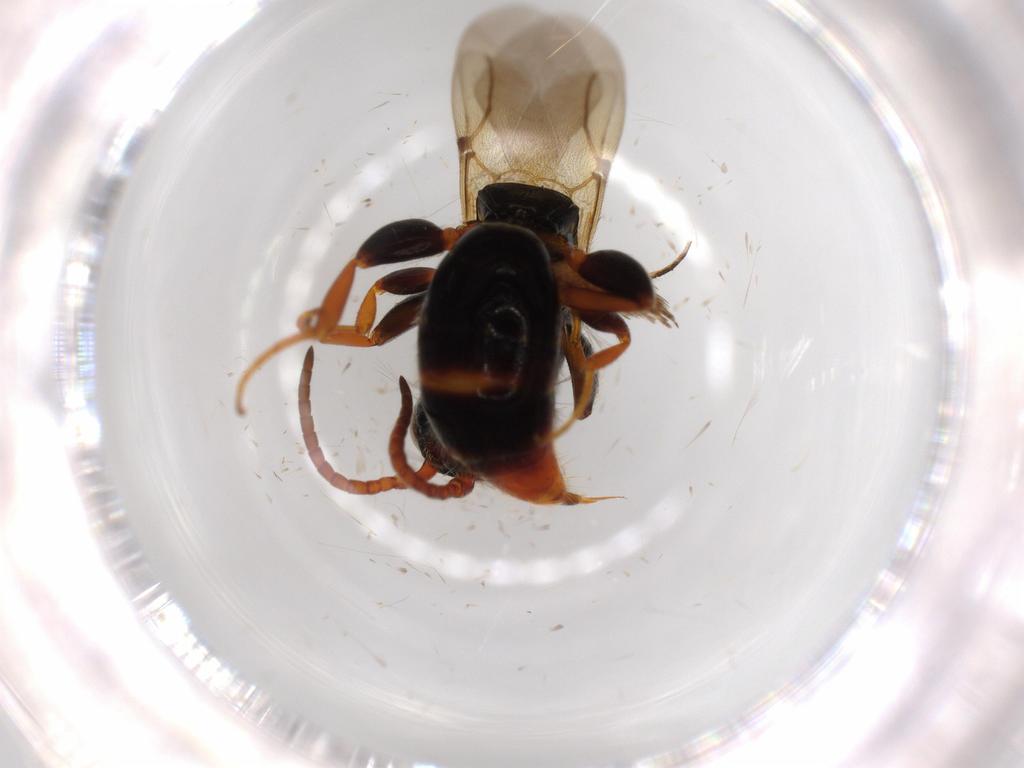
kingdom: Animalia
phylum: Arthropoda
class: Insecta
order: Hymenoptera
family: Bethylidae
